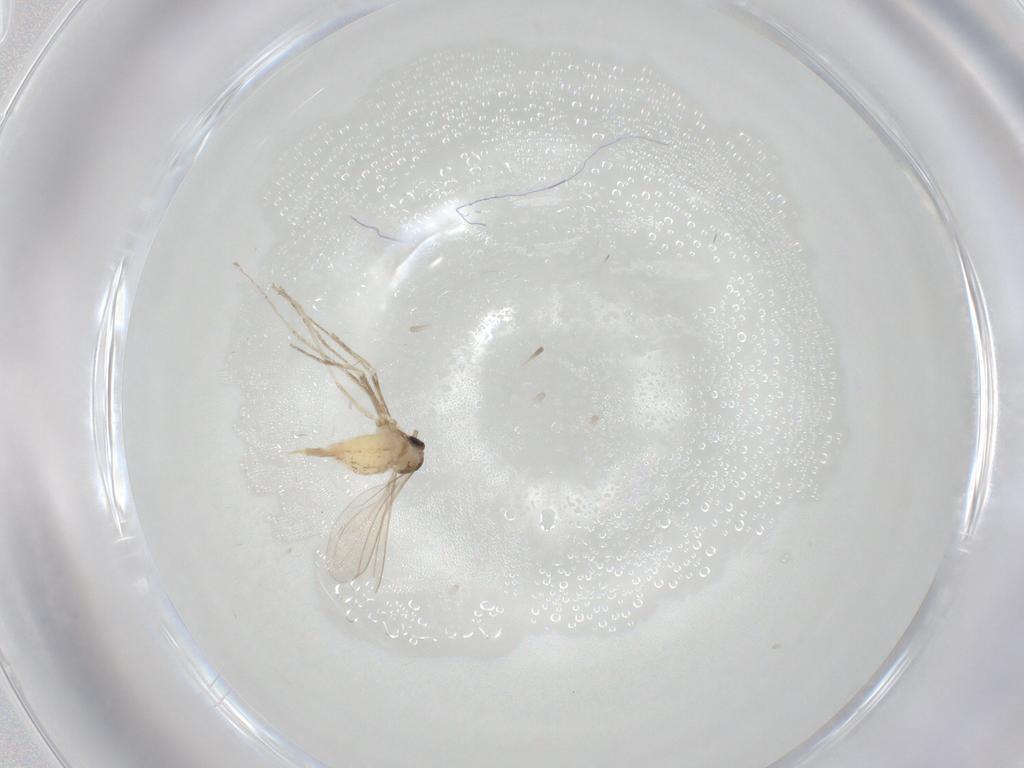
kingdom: Animalia
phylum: Arthropoda
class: Insecta
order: Diptera
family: Cecidomyiidae
